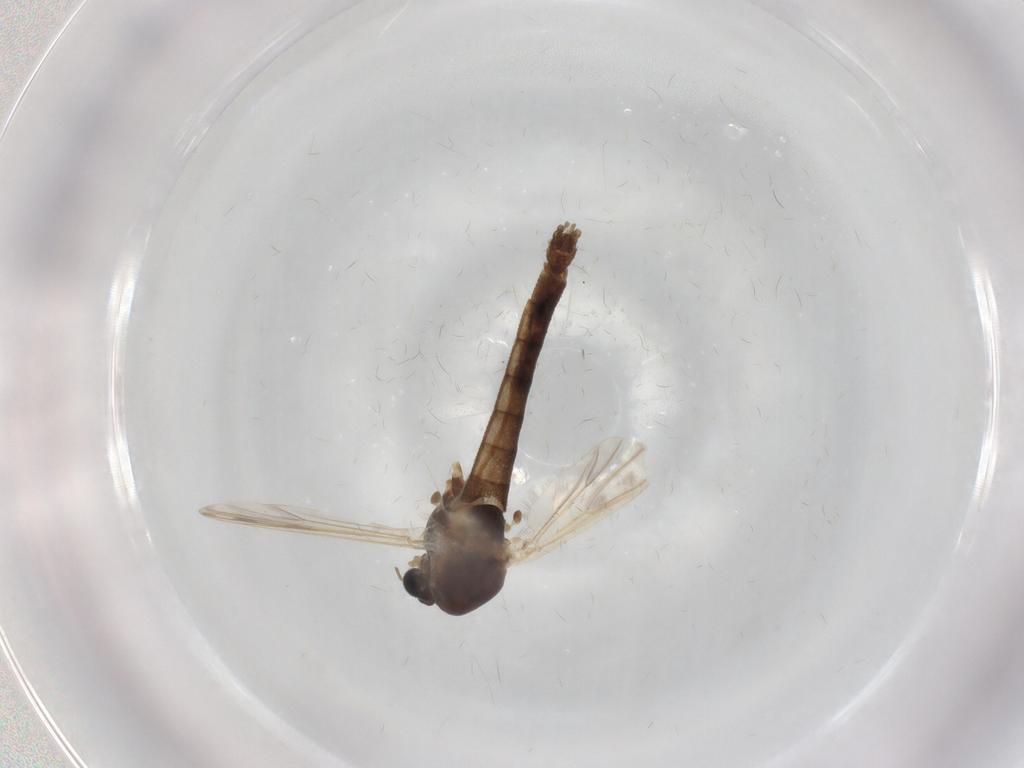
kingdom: Animalia
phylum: Arthropoda
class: Insecta
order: Diptera
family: Chironomidae
